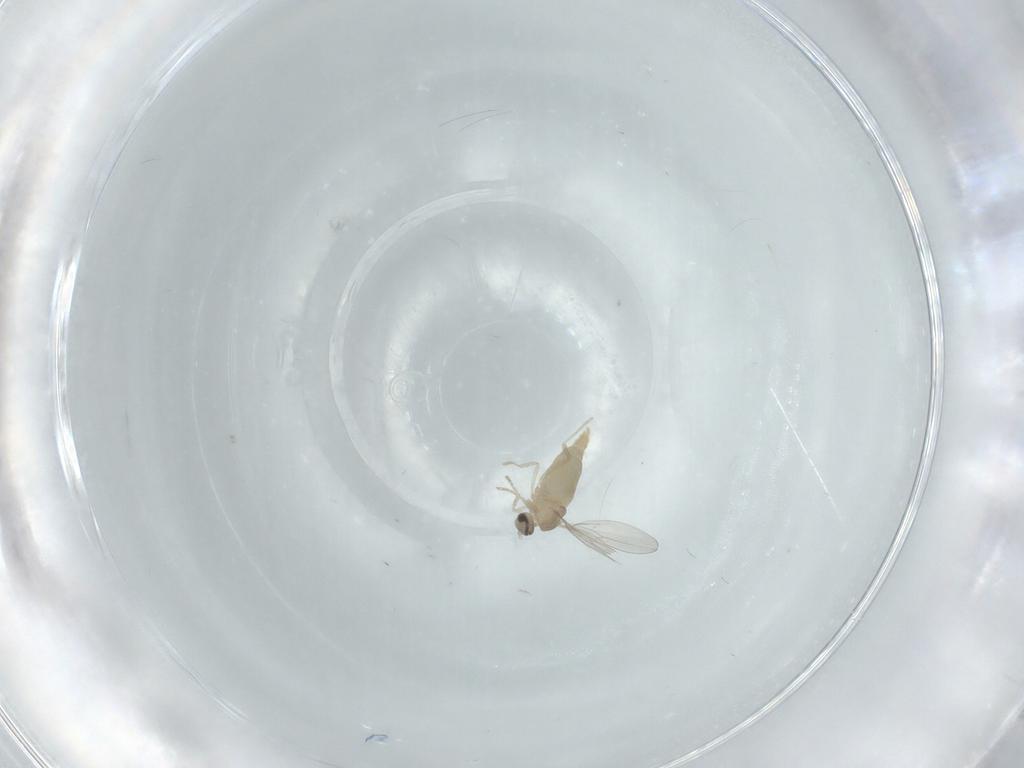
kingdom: Animalia
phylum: Arthropoda
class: Insecta
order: Diptera
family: Cecidomyiidae
